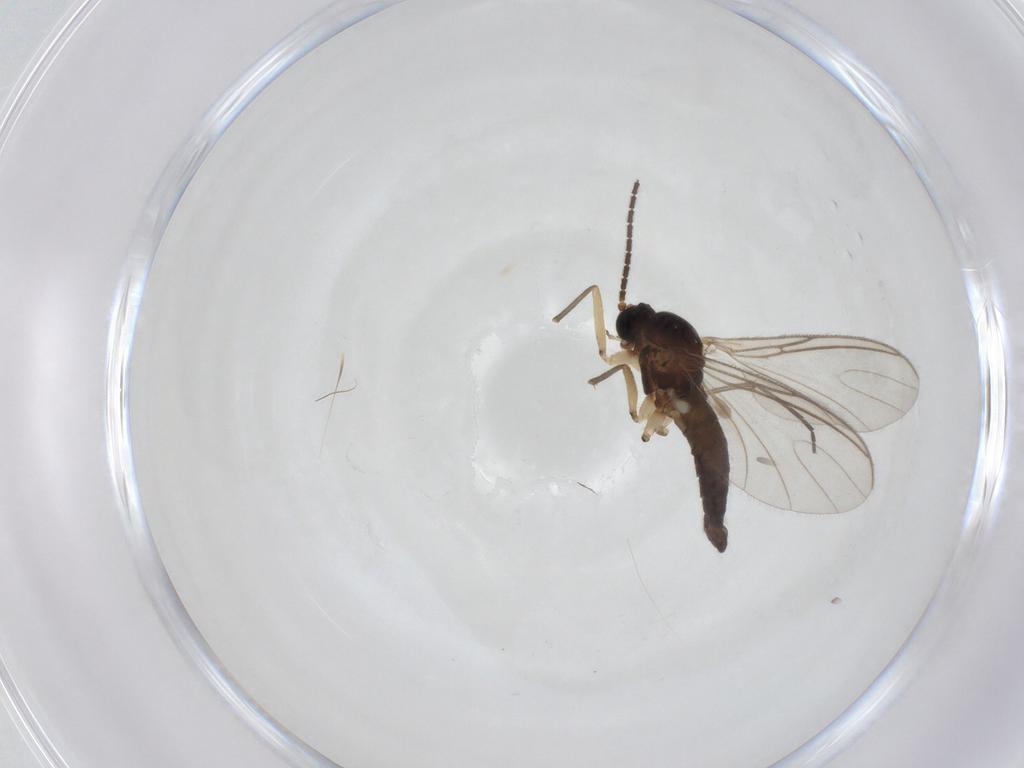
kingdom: Animalia
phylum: Arthropoda
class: Insecta
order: Diptera
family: Sciaridae
